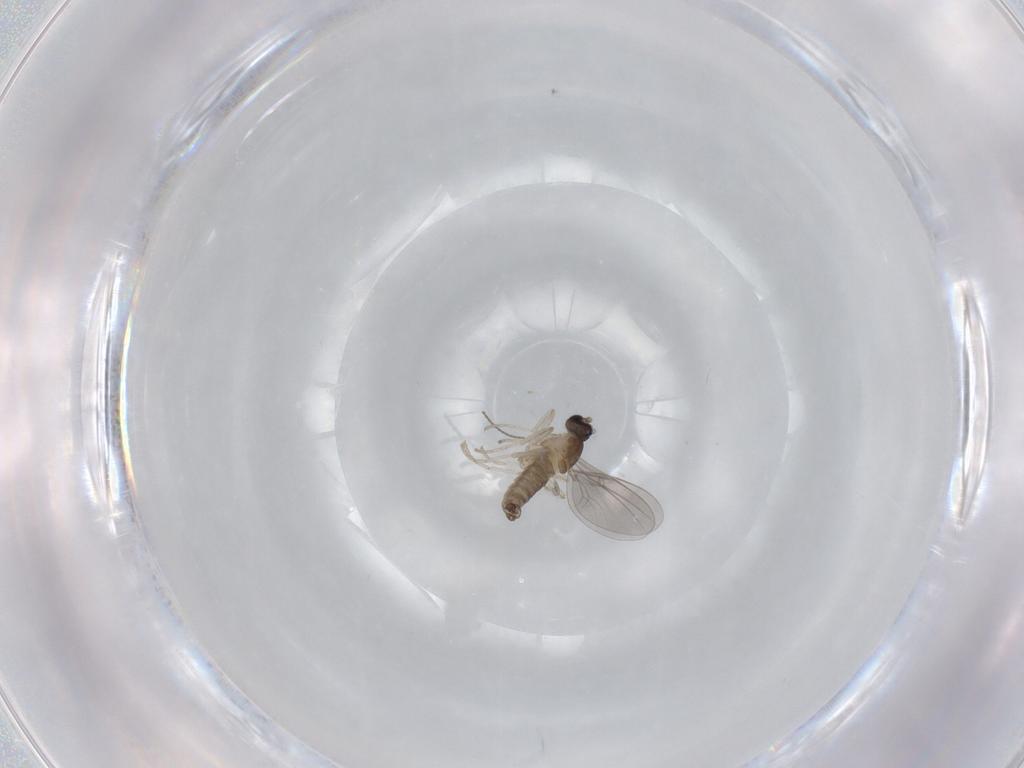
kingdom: Animalia
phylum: Arthropoda
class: Insecta
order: Diptera
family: Cecidomyiidae
